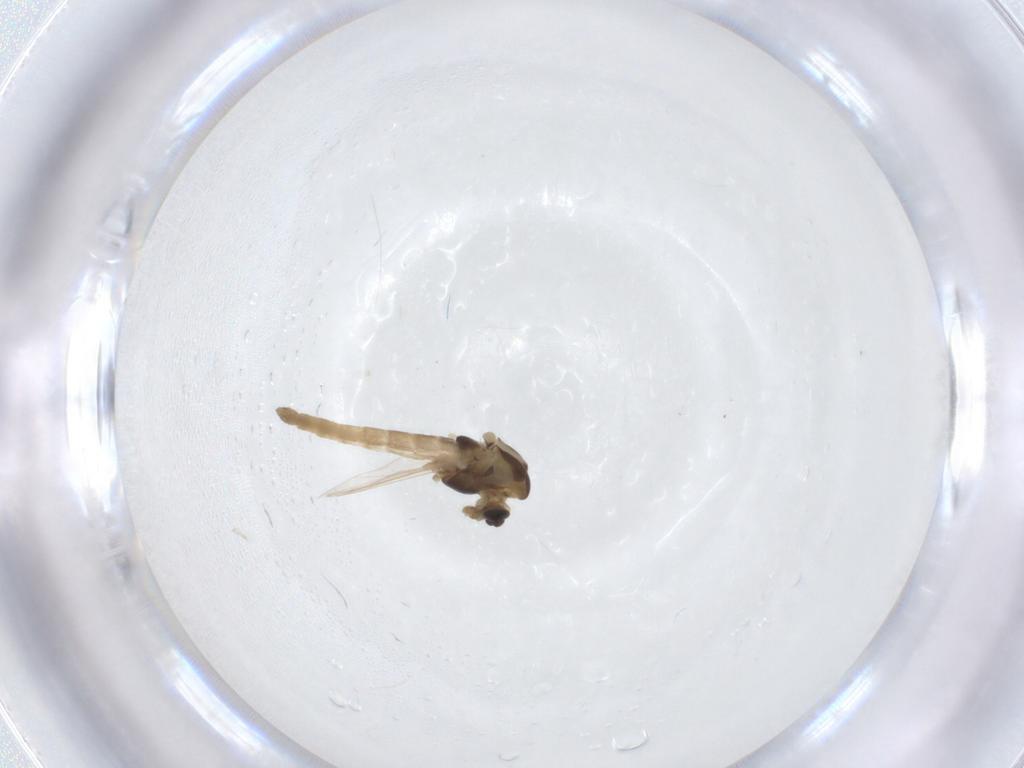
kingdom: Animalia
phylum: Arthropoda
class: Insecta
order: Diptera
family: Chironomidae
